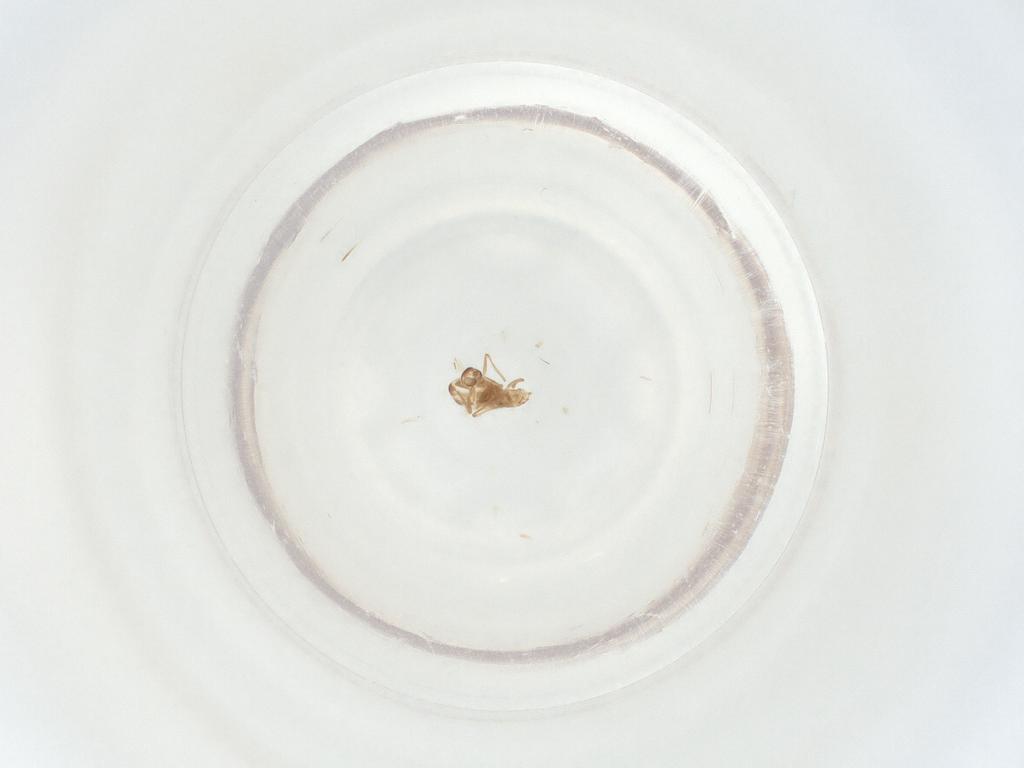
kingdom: Animalia
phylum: Arthropoda
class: Insecta
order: Diptera
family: Chironomidae
